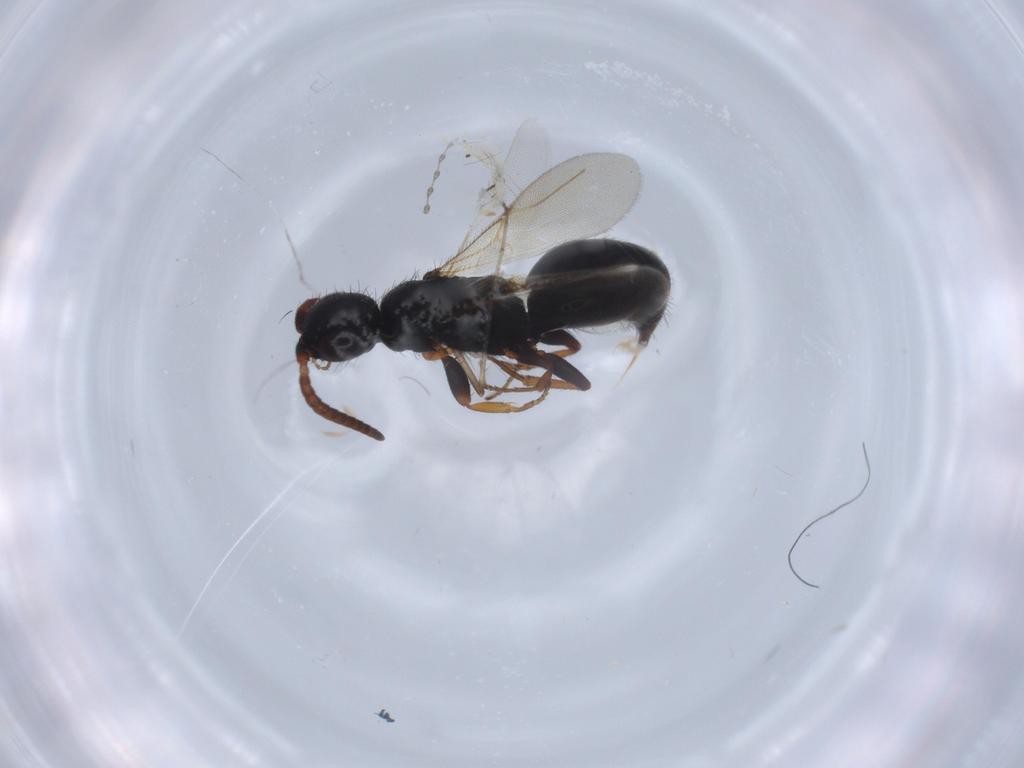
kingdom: Animalia
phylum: Arthropoda
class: Insecta
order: Hymenoptera
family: Bethylidae
